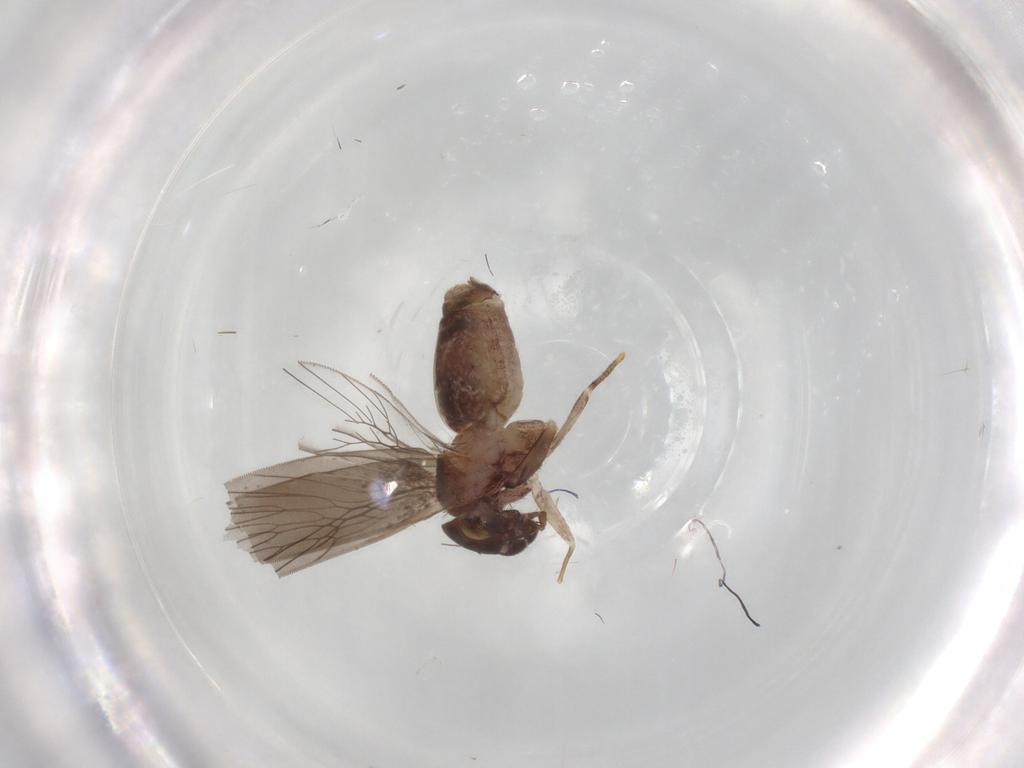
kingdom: Animalia
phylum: Arthropoda
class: Insecta
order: Psocodea
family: Lepidopsocidae
